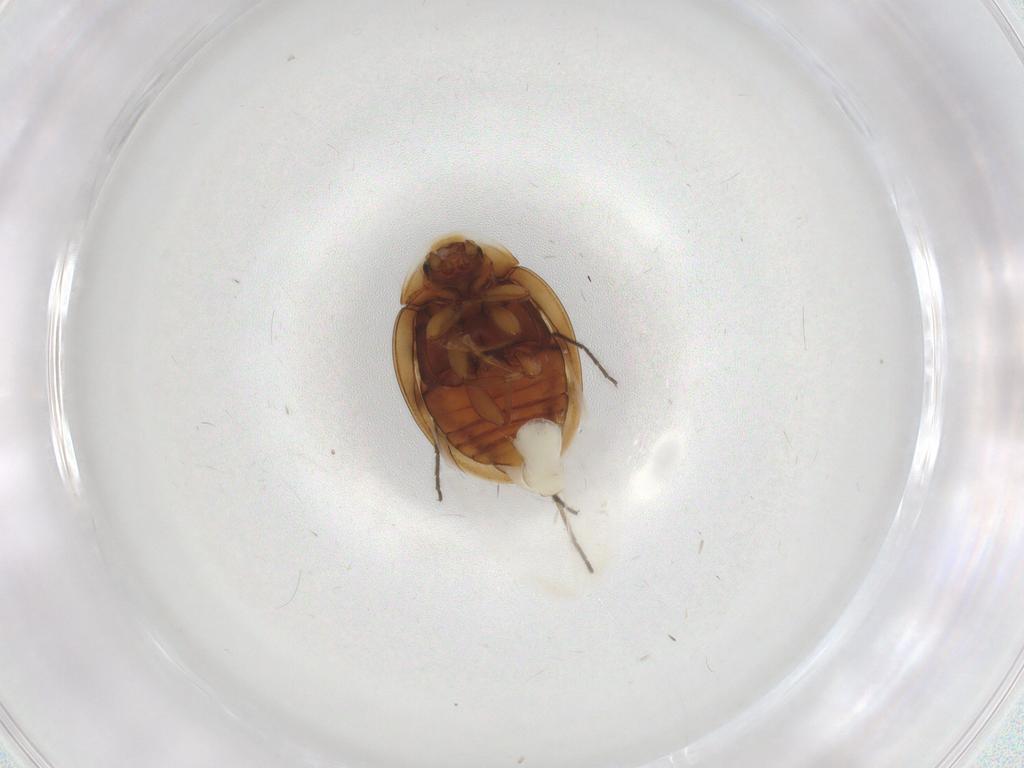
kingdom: Animalia
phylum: Arthropoda
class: Insecta
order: Coleoptera
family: Coccinellidae
